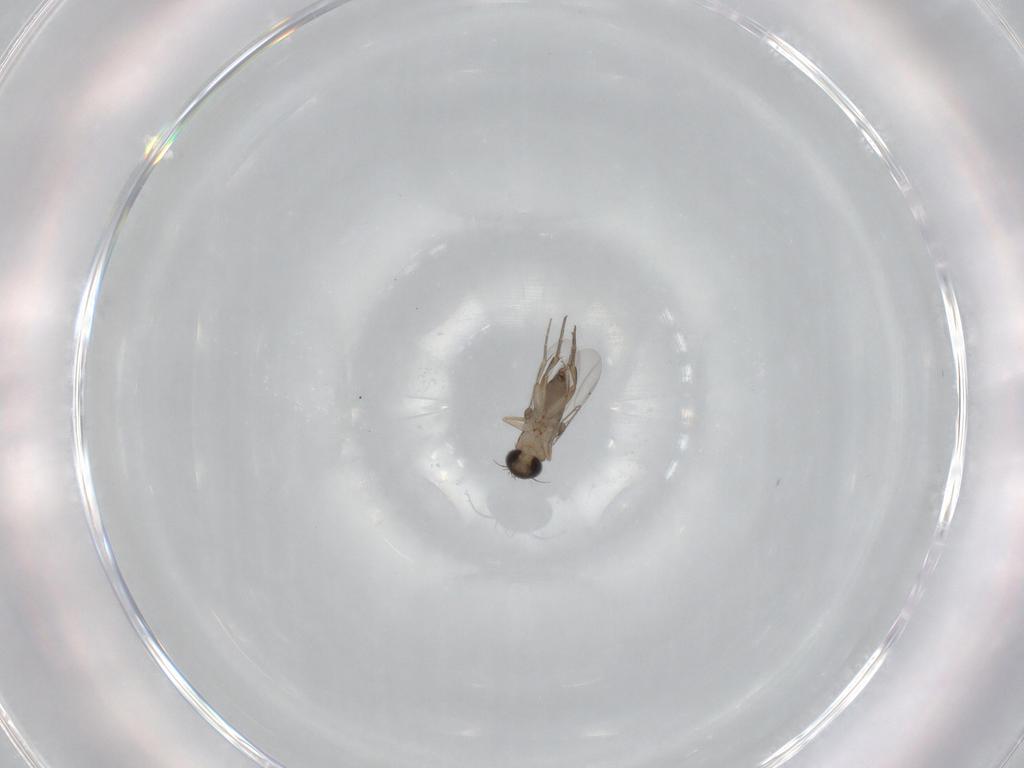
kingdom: Animalia
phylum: Arthropoda
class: Insecta
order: Diptera
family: Phoridae
